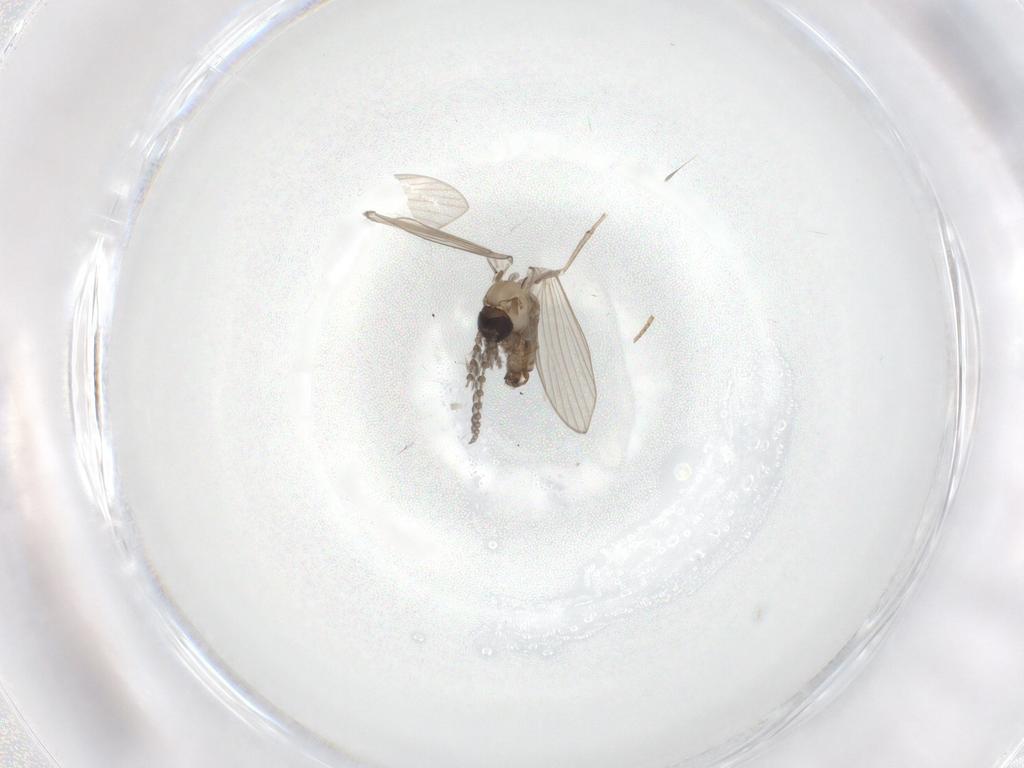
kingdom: Animalia
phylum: Arthropoda
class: Insecta
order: Diptera
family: Psychodidae
